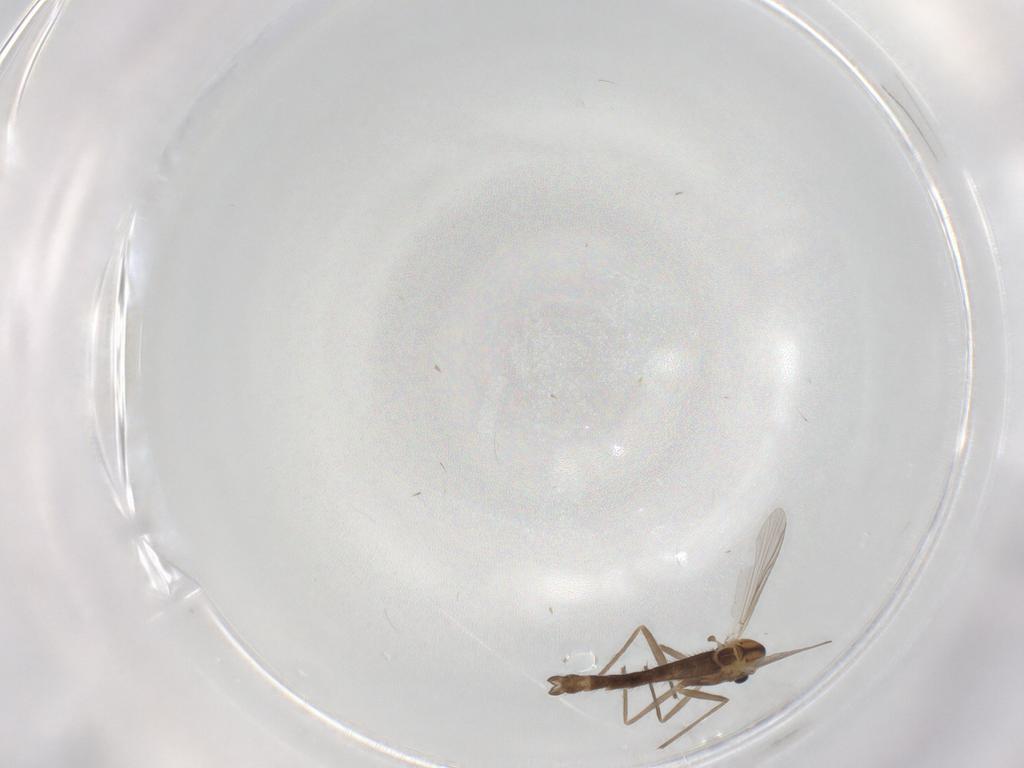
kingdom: Animalia
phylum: Arthropoda
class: Insecta
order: Diptera
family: Chironomidae
